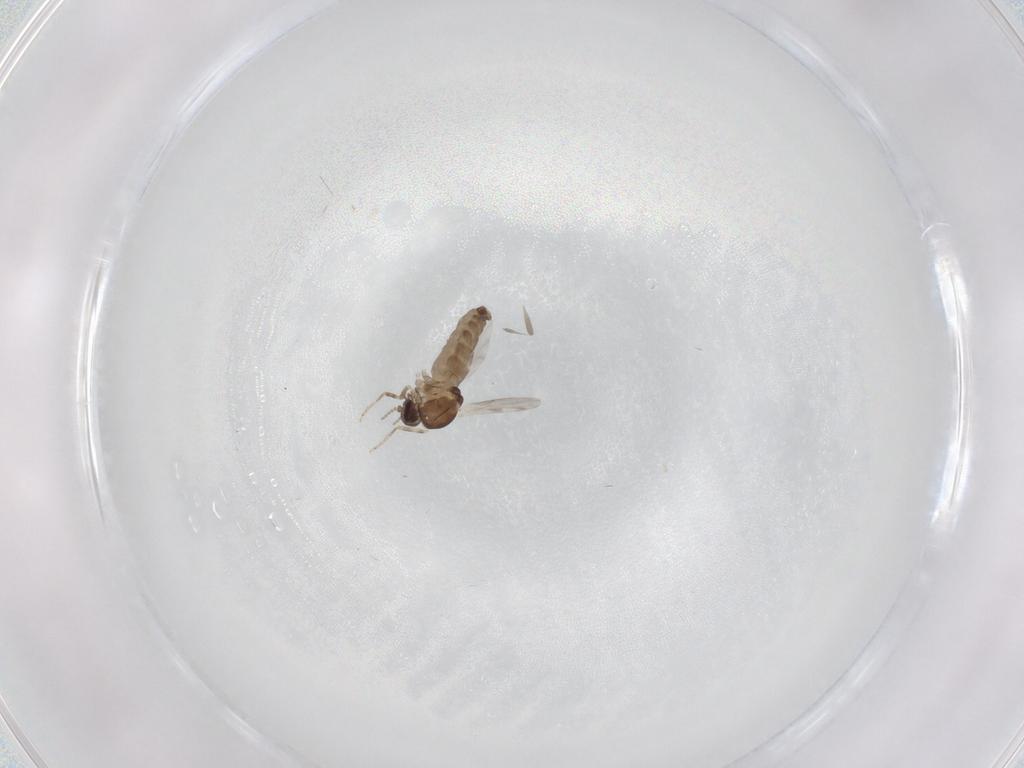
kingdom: Animalia
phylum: Arthropoda
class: Insecta
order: Diptera
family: Ceratopogonidae
